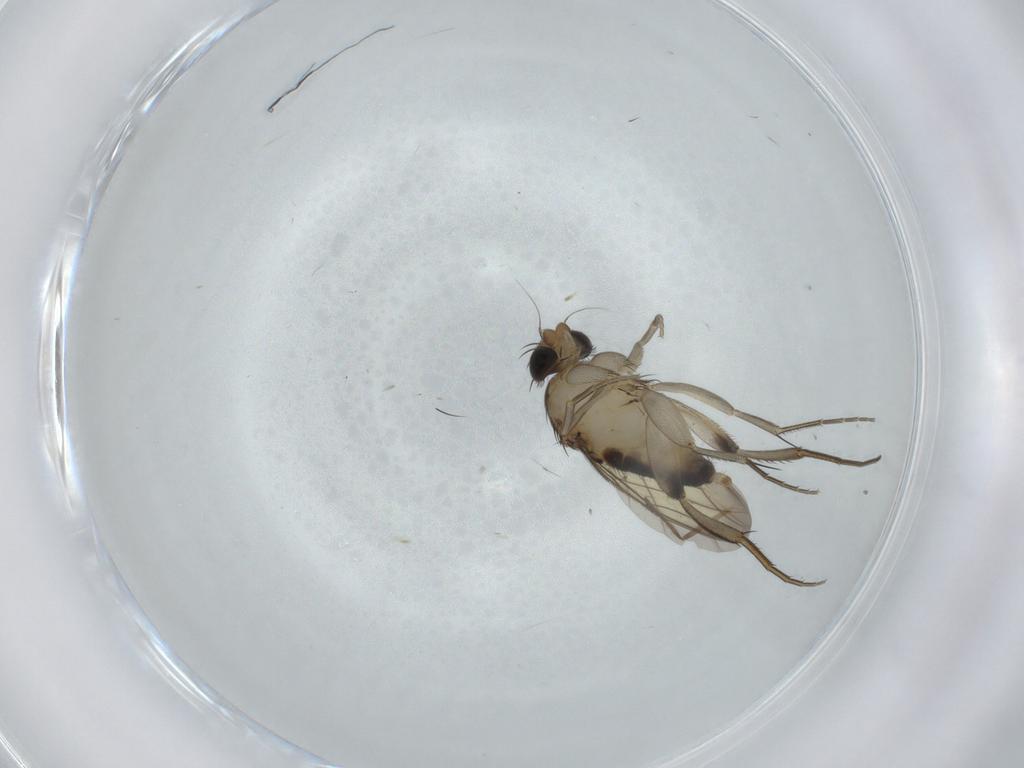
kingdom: Animalia
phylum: Arthropoda
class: Insecta
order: Diptera
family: Phoridae
